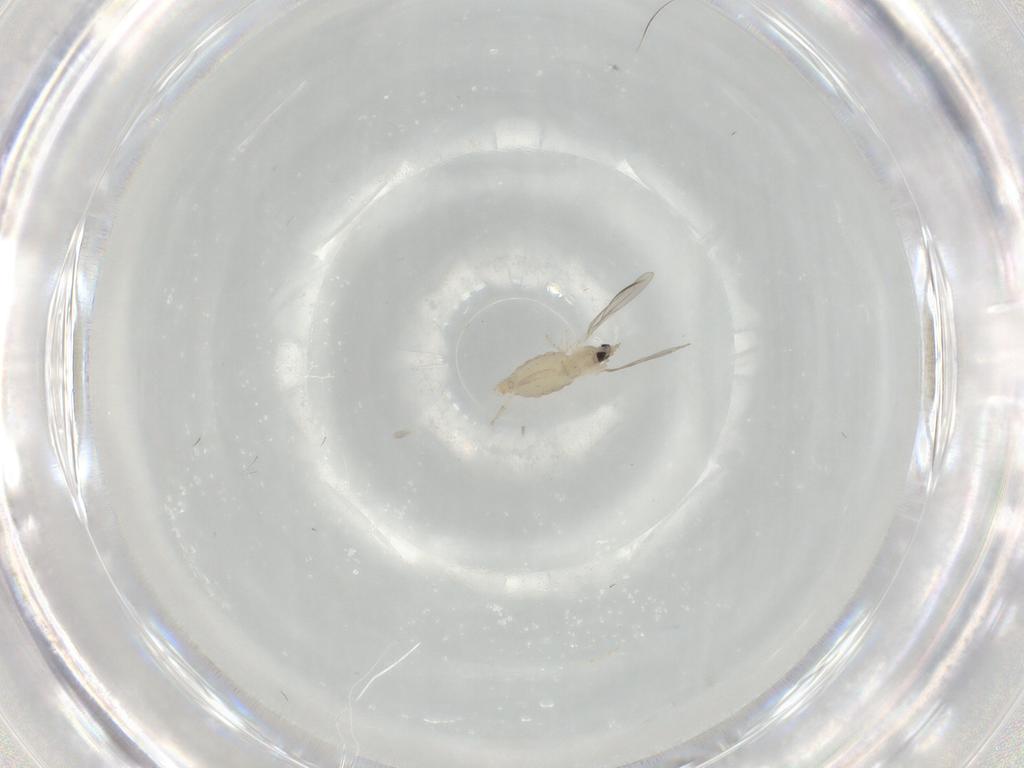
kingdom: Animalia
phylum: Arthropoda
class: Insecta
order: Diptera
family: Cecidomyiidae
